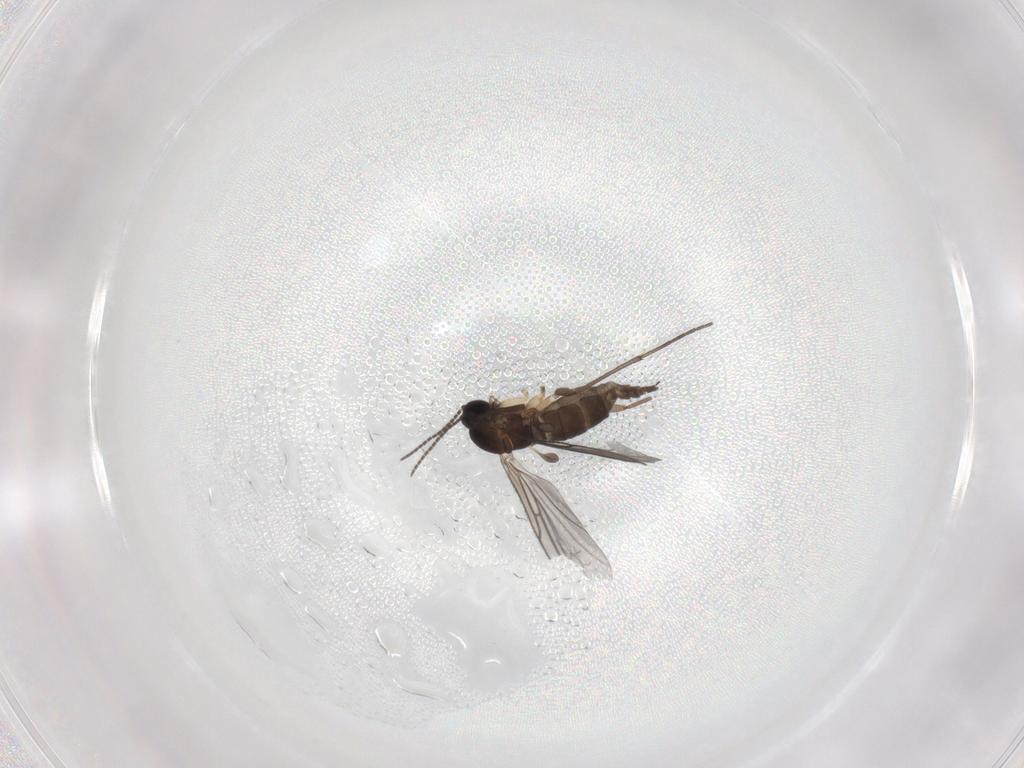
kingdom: Animalia
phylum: Arthropoda
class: Insecta
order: Diptera
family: Sciaridae
